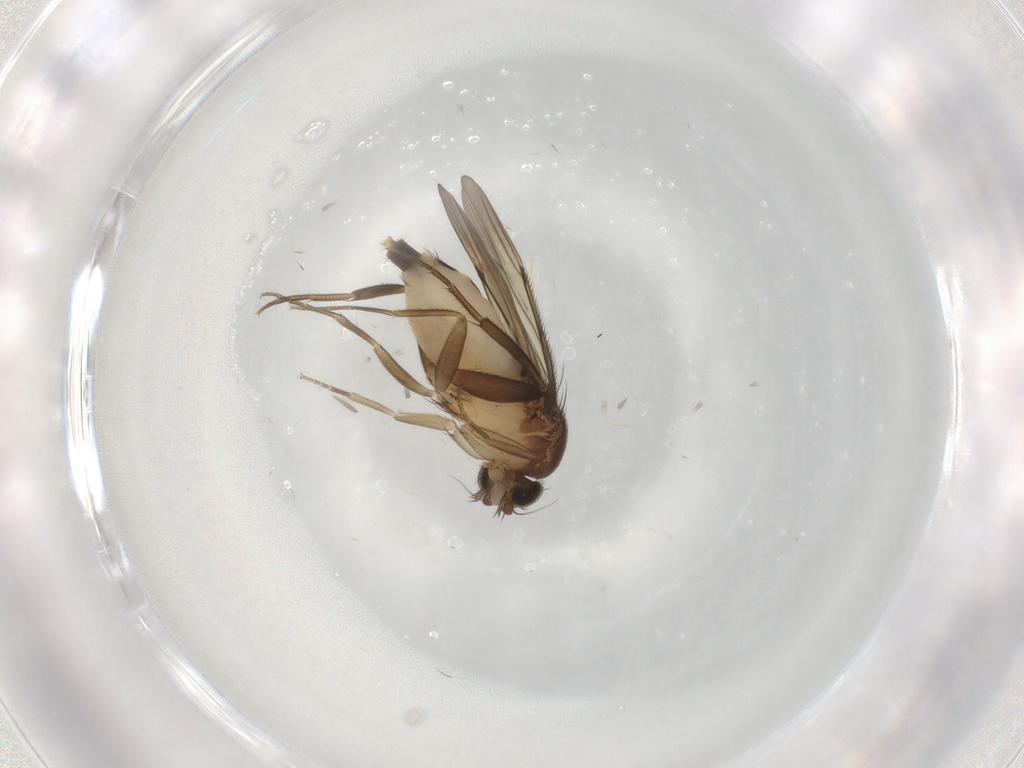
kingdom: Animalia
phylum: Arthropoda
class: Insecta
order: Diptera
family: Phoridae
